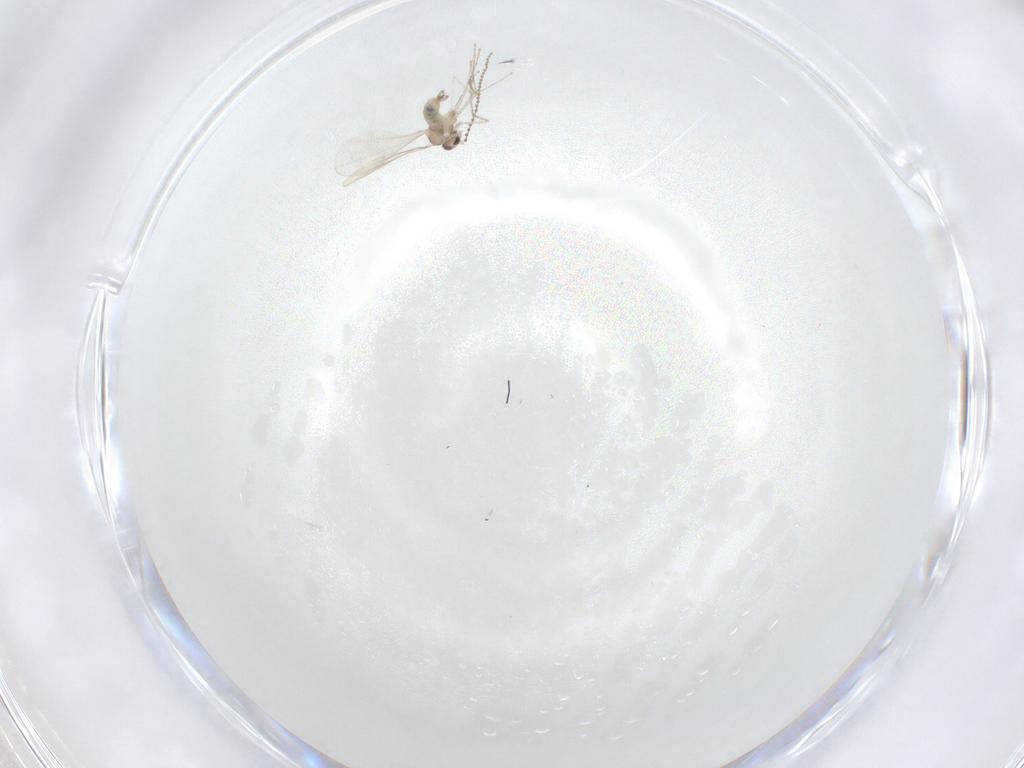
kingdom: Animalia
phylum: Arthropoda
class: Insecta
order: Diptera
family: Cecidomyiidae
